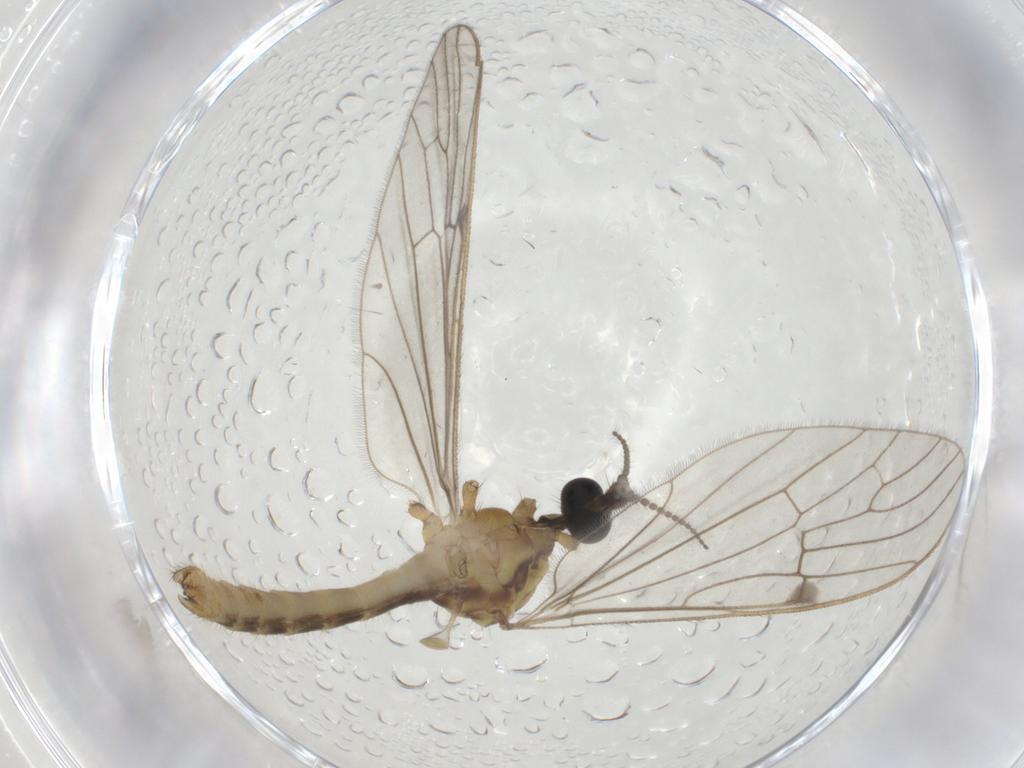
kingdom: Animalia
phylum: Arthropoda
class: Insecta
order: Diptera
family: Limoniidae
